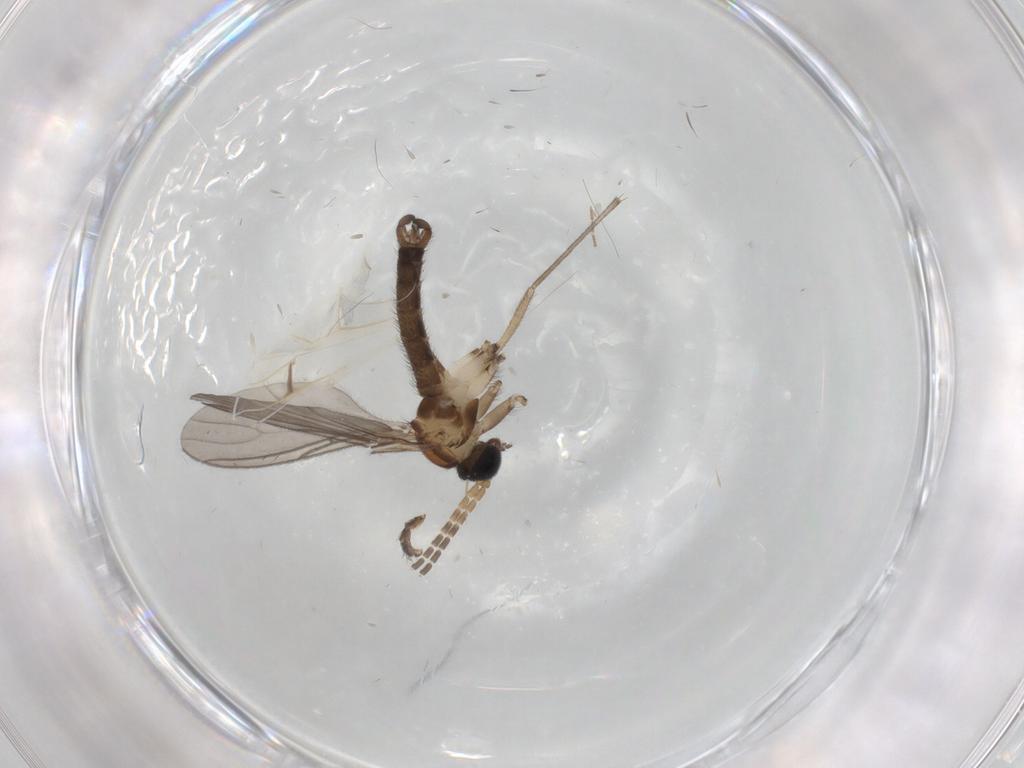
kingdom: Animalia
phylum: Arthropoda
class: Insecta
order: Diptera
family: Sciaridae
